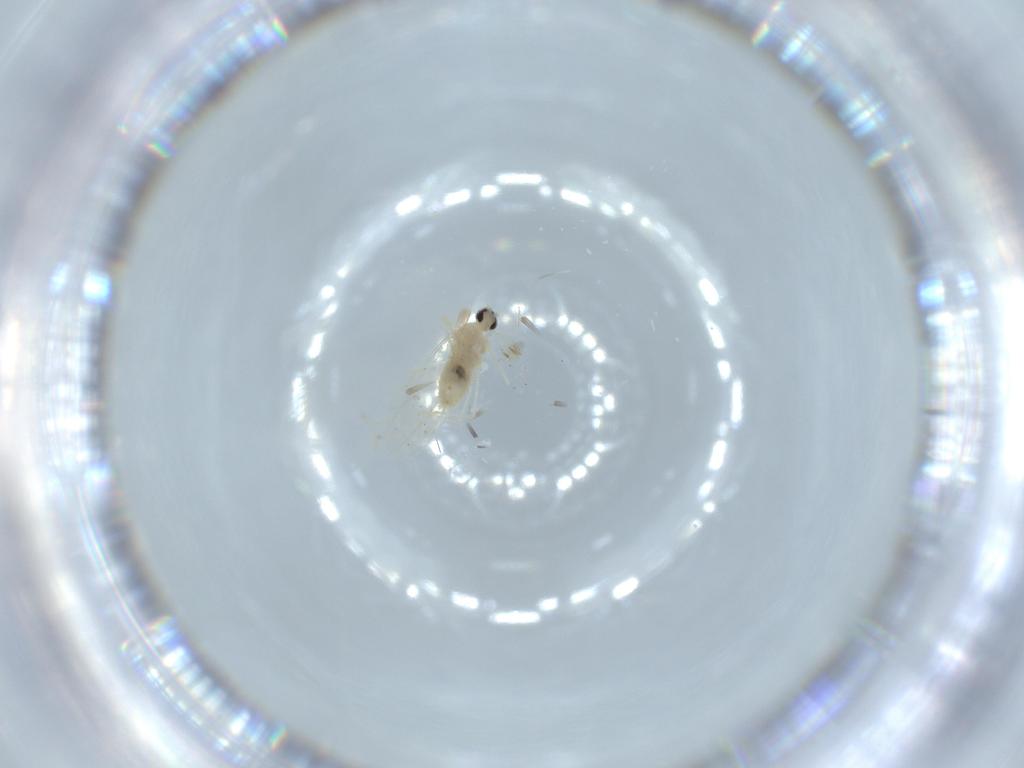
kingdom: Animalia
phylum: Arthropoda
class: Insecta
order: Diptera
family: Cecidomyiidae
